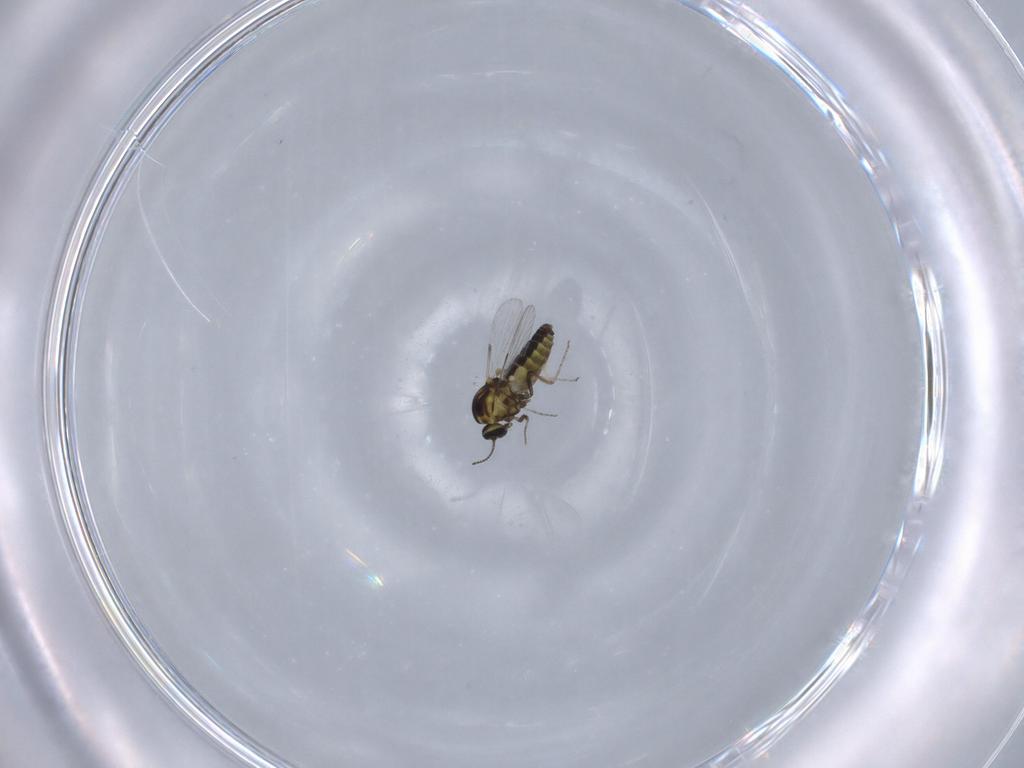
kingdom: Animalia
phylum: Arthropoda
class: Insecta
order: Diptera
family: Ceratopogonidae
